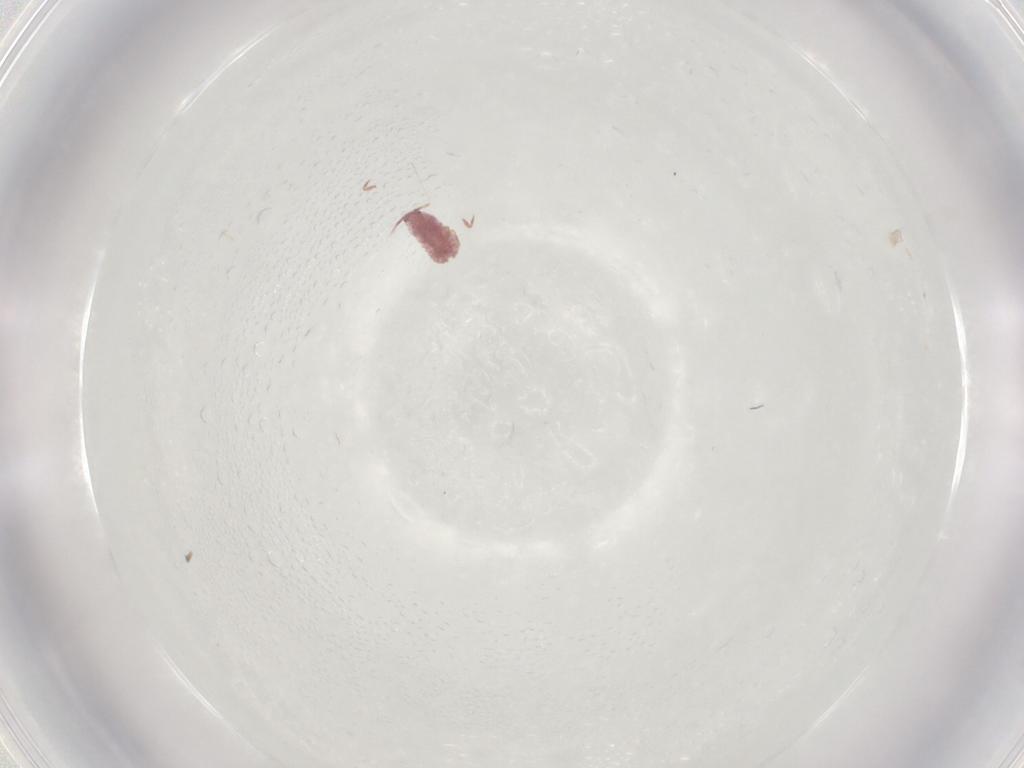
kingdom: Animalia
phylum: Arthropoda
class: Insecta
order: Hemiptera
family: Pseudococcidae
